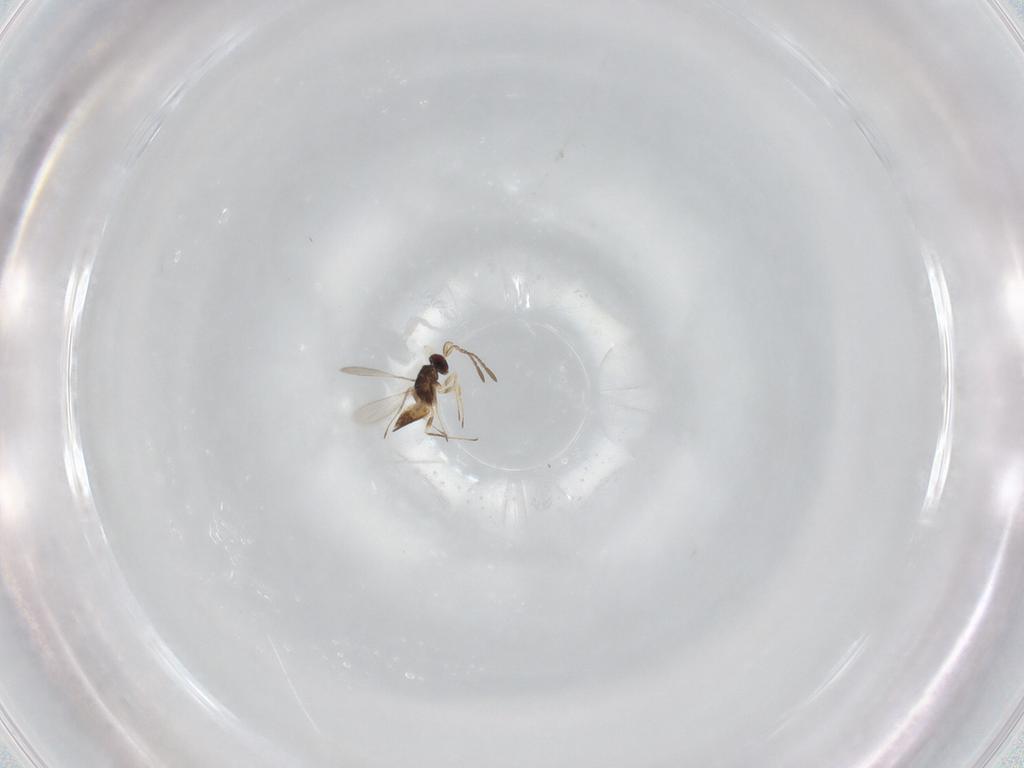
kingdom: Animalia
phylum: Arthropoda
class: Insecta
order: Hymenoptera
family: Mymaridae
